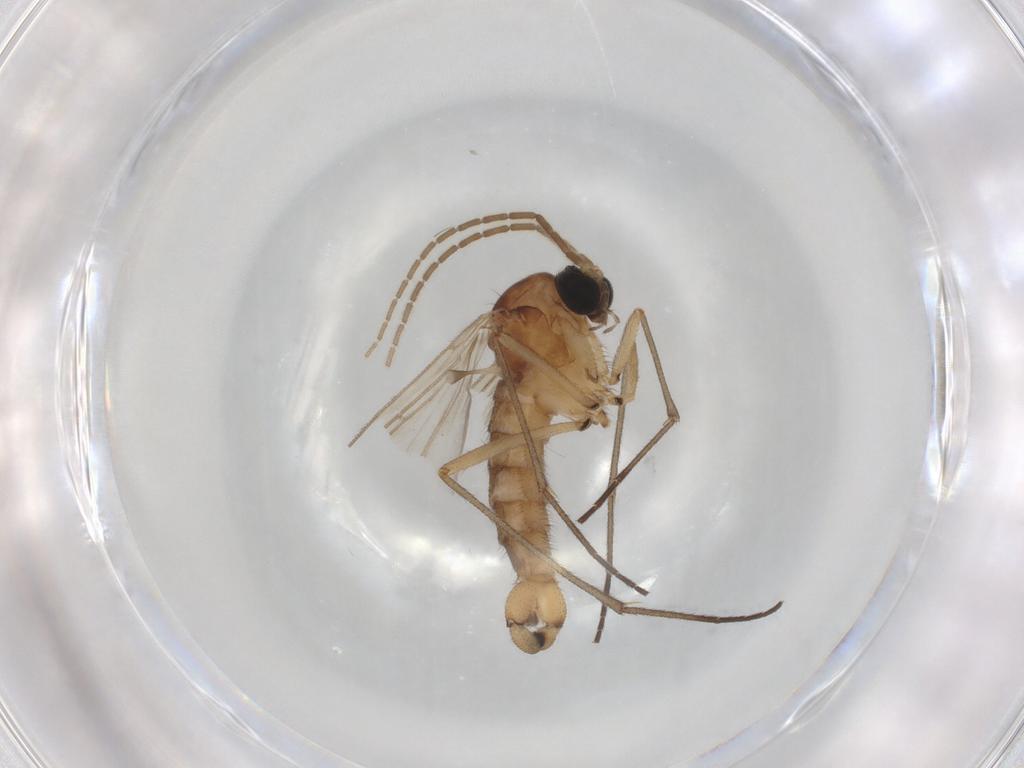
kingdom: Animalia
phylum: Arthropoda
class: Insecta
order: Diptera
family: Sciaridae
